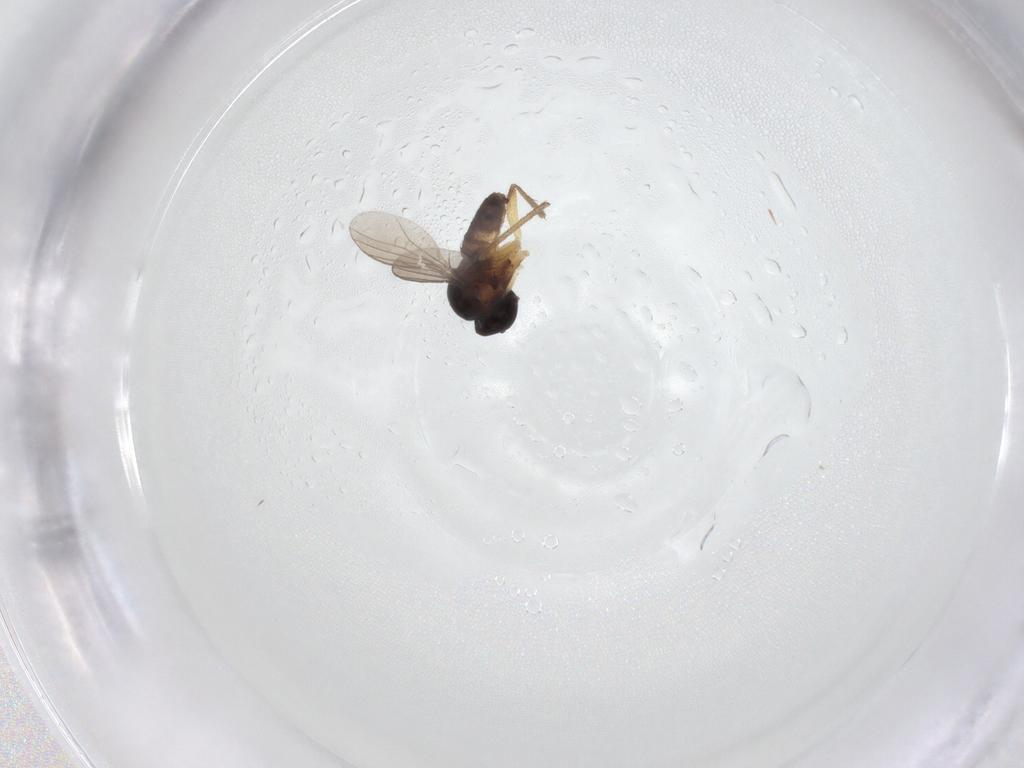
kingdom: Animalia
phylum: Arthropoda
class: Insecta
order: Diptera
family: Dolichopodidae
